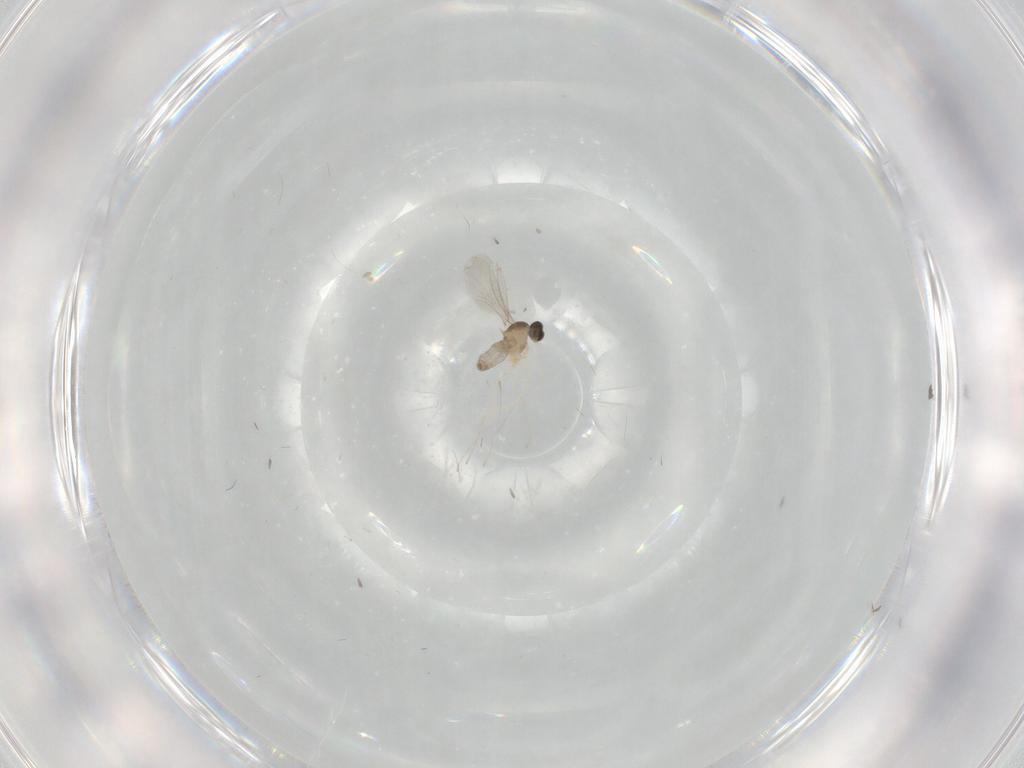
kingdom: Animalia
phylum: Arthropoda
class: Insecta
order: Diptera
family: Cecidomyiidae
